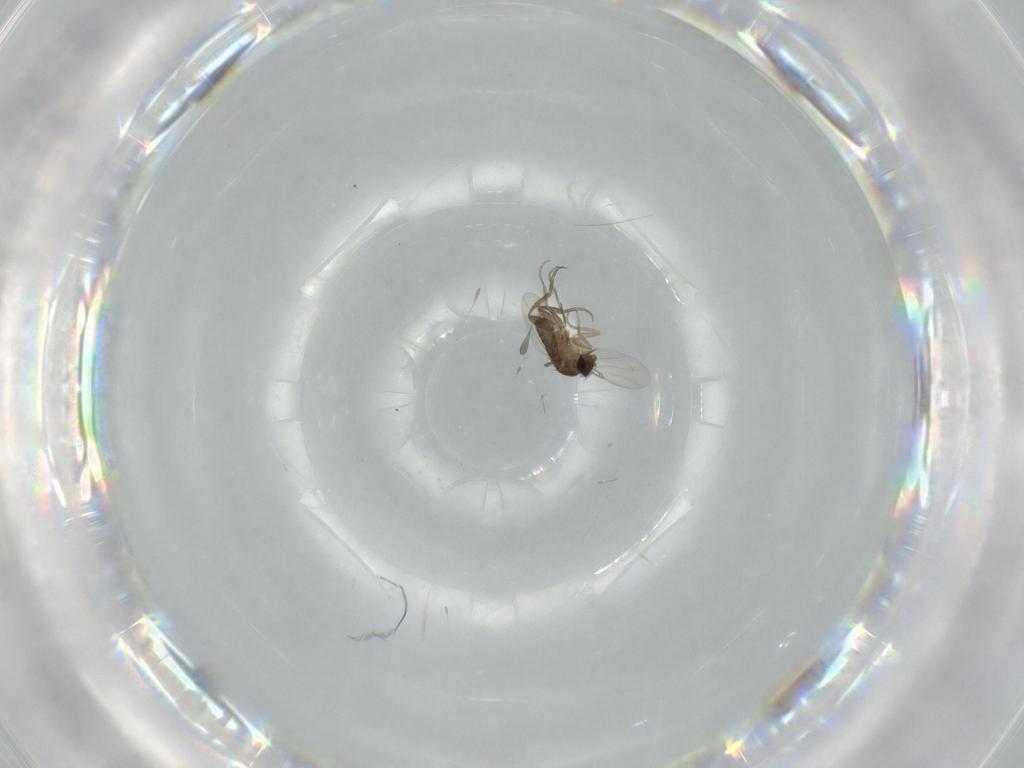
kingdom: Animalia
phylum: Arthropoda
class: Insecta
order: Diptera
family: Phoridae
